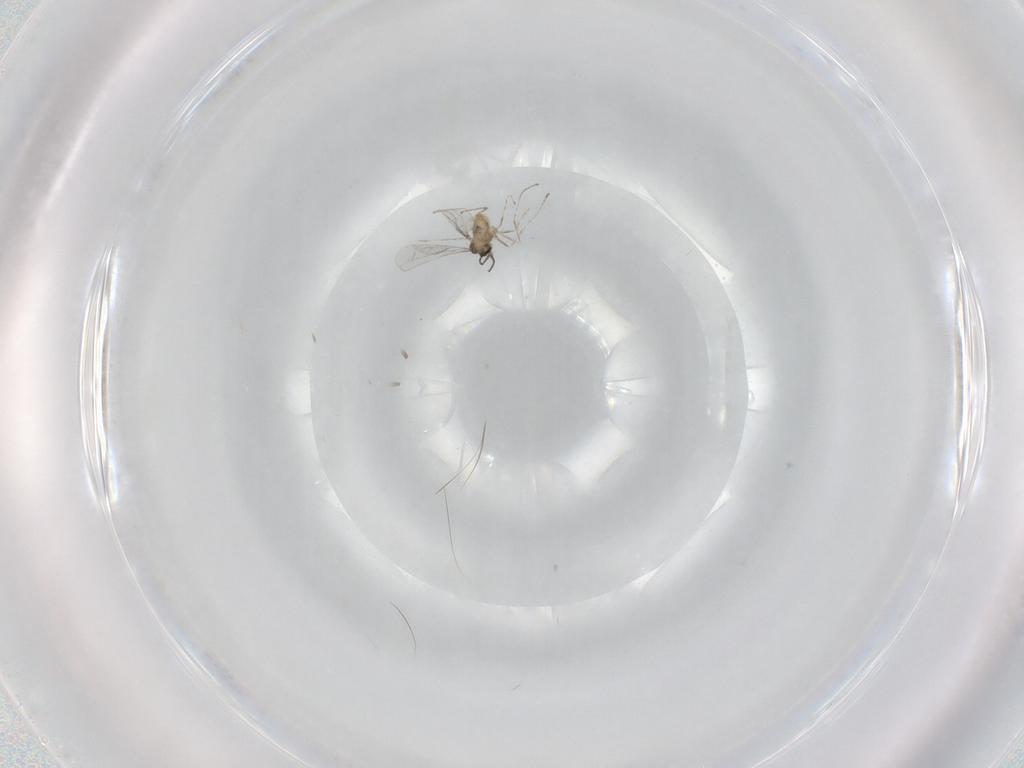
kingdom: Animalia
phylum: Arthropoda
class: Insecta
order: Diptera
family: Cecidomyiidae
